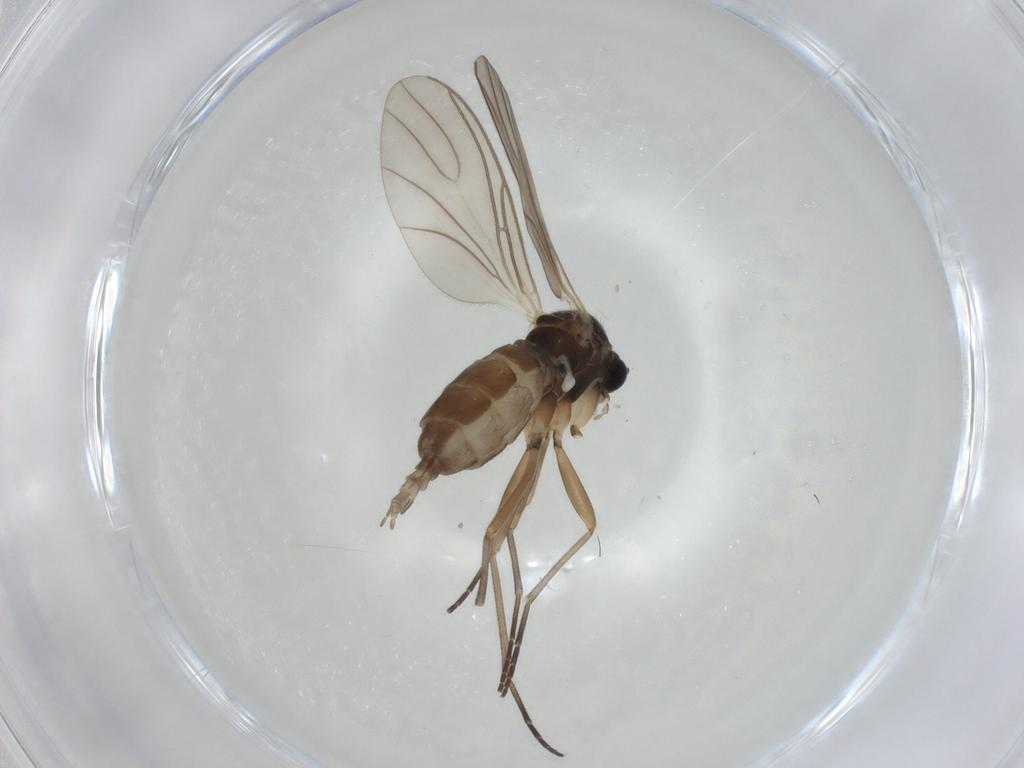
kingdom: Animalia
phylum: Arthropoda
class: Insecta
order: Diptera
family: Sciaridae
